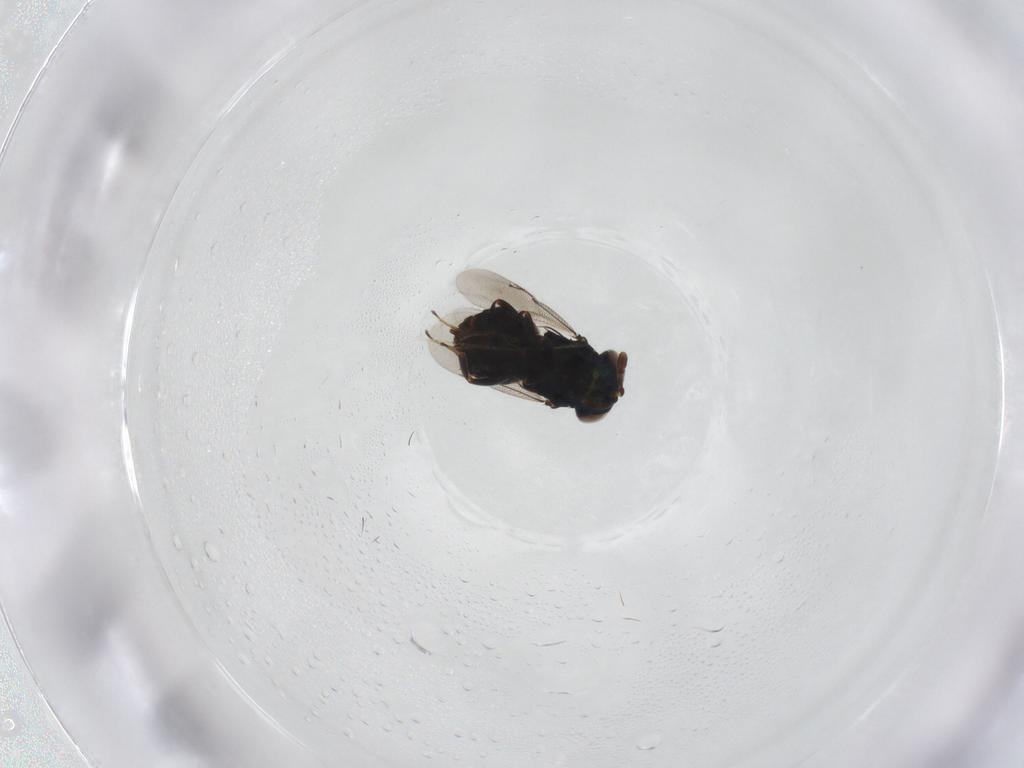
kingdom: Animalia
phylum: Arthropoda
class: Insecta
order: Hymenoptera
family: Eunotidae
